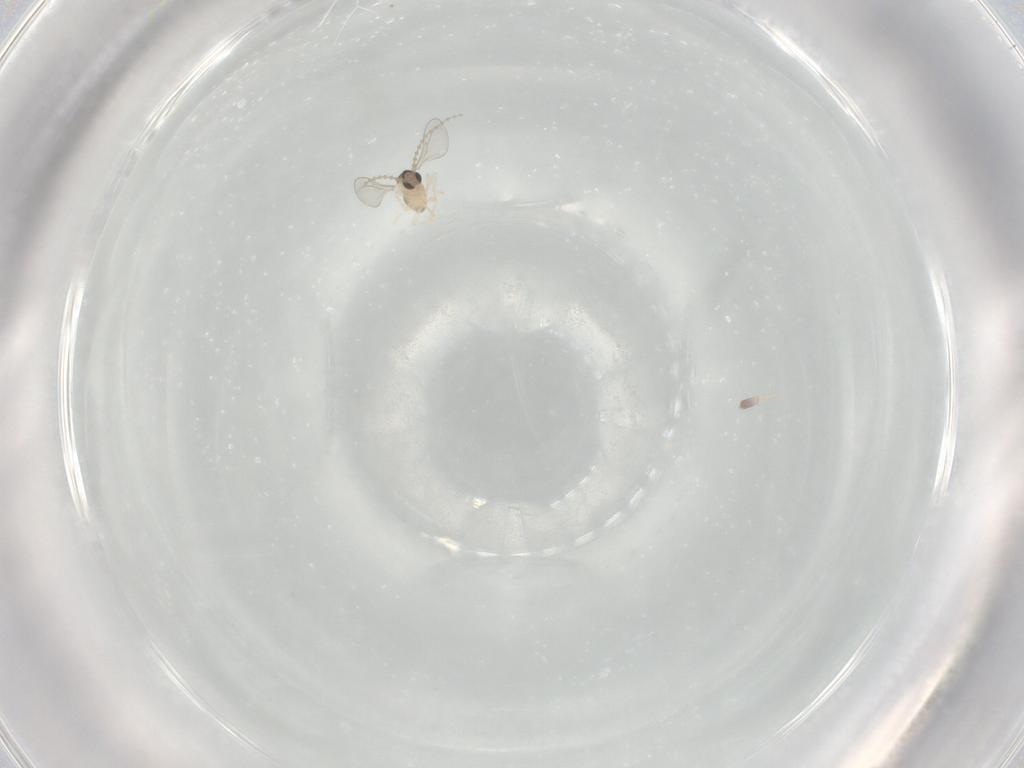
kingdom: Animalia
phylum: Arthropoda
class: Insecta
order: Diptera
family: Cecidomyiidae
